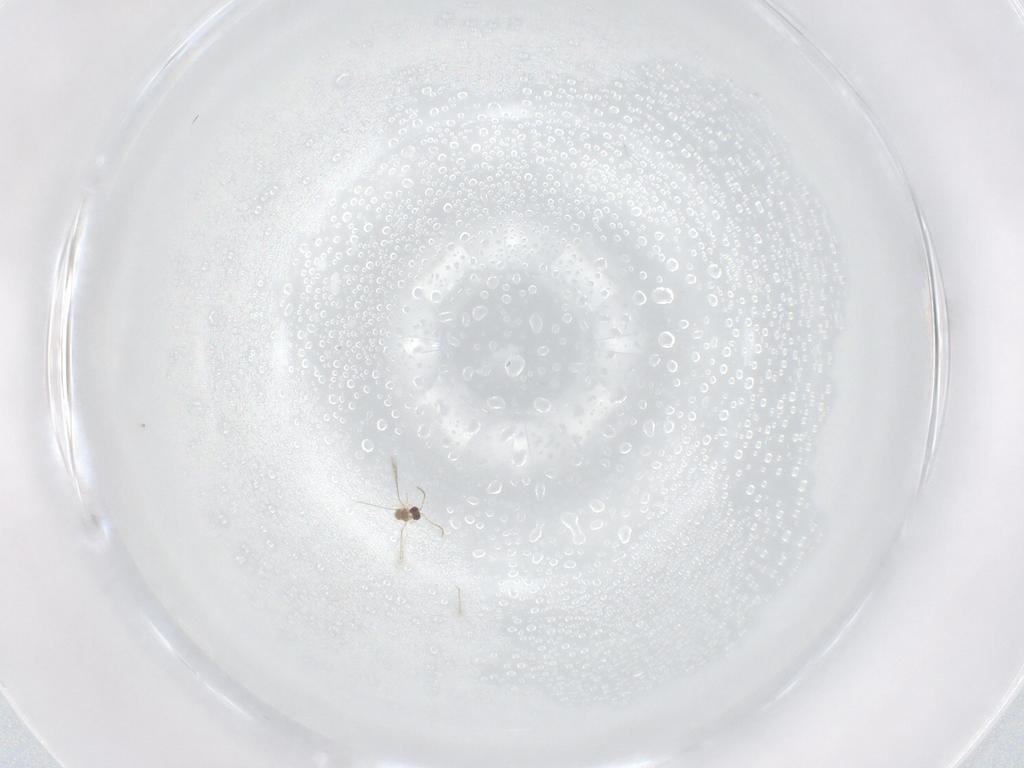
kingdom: Animalia
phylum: Arthropoda
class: Insecta
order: Hymenoptera
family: Mymaridae
